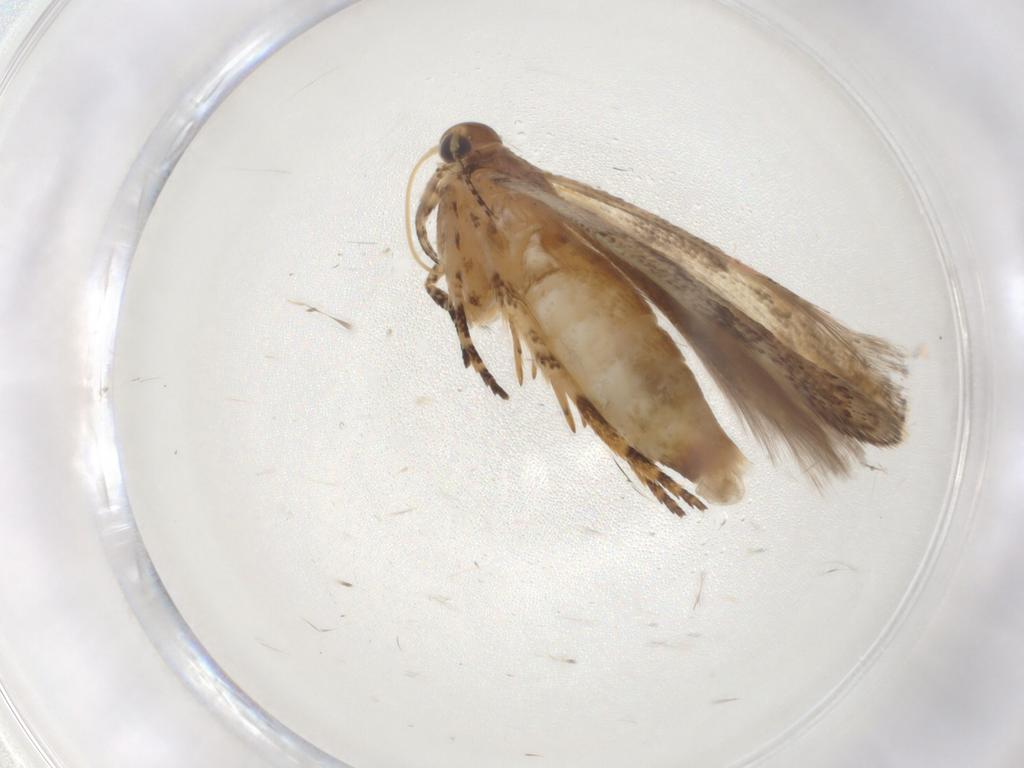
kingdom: Animalia
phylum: Arthropoda
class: Insecta
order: Lepidoptera
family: Gelechiidae
